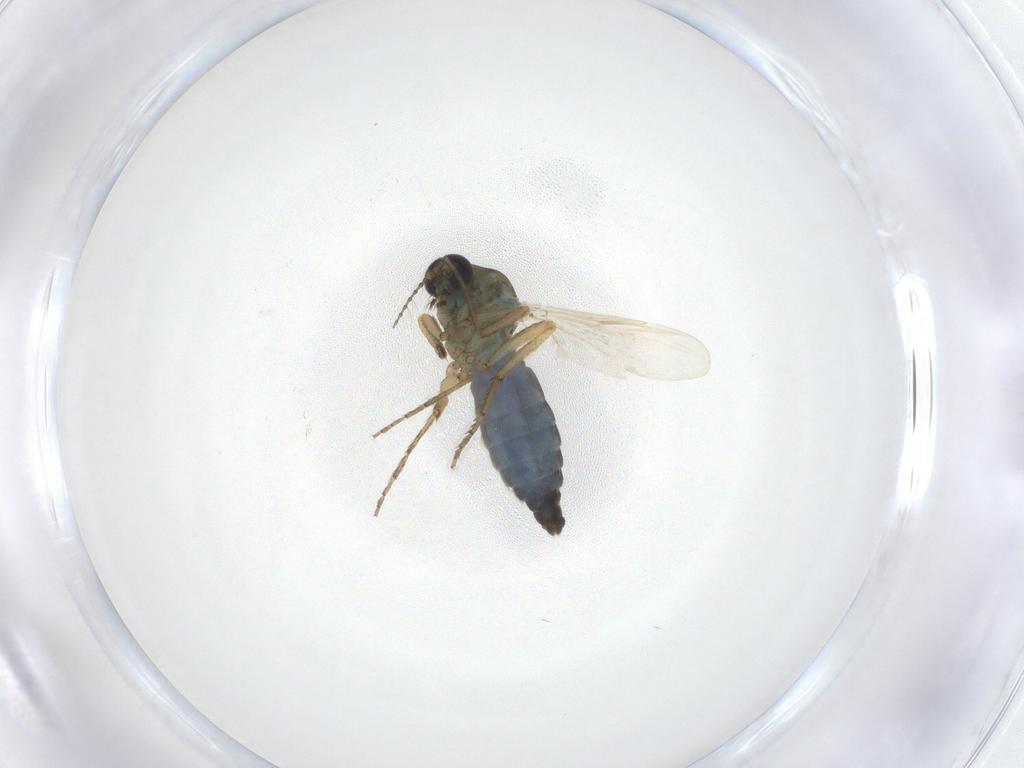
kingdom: Animalia
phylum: Arthropoda
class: Insecta
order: Diptera
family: Ceratopogonidae
